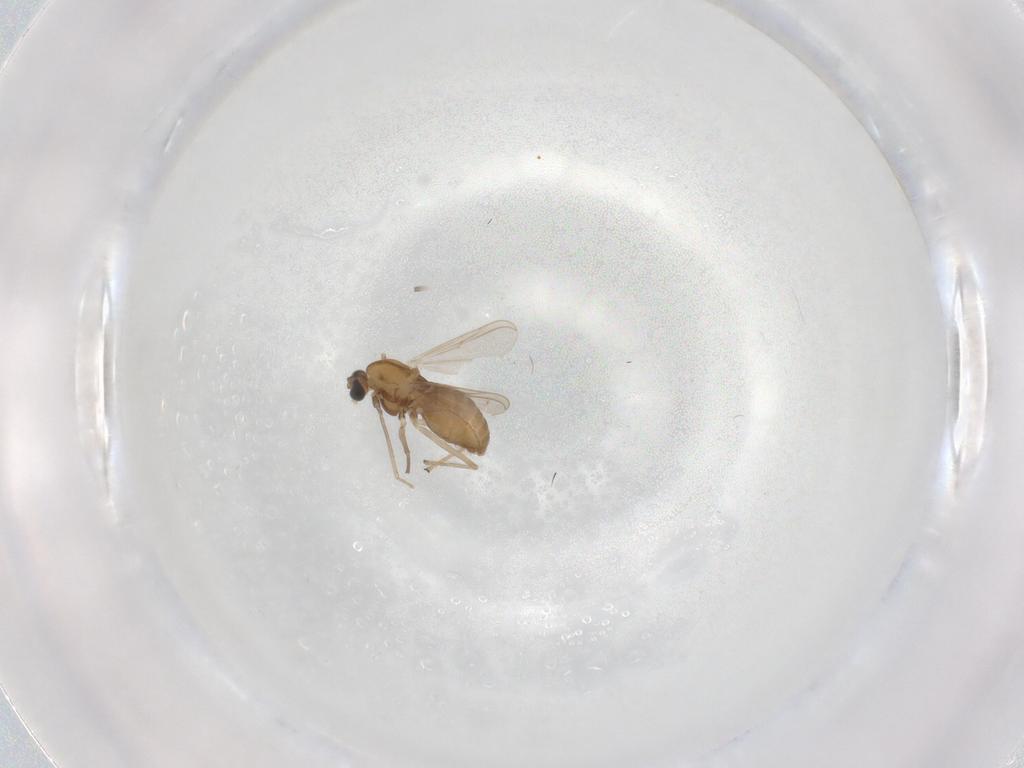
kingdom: Animalia
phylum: Arthropoda
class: Insecta
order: Diptera
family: Chironomidae
